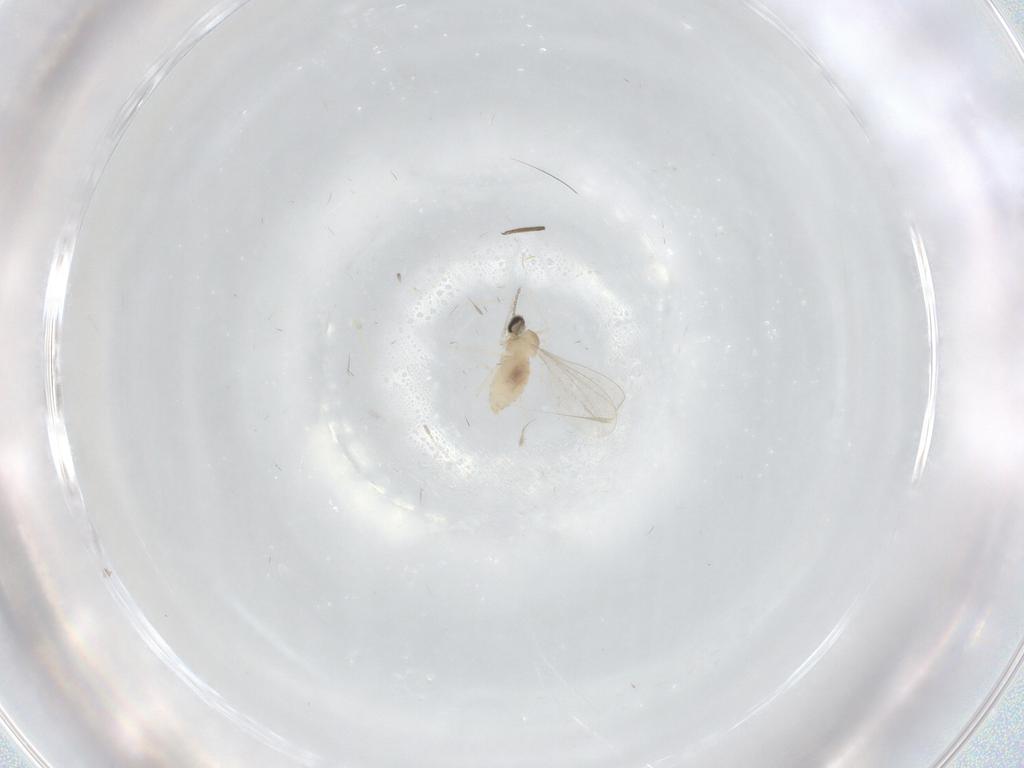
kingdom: Animalia
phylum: Arthropoda
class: Insecta
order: Diptera
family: Cecidomyiidae
